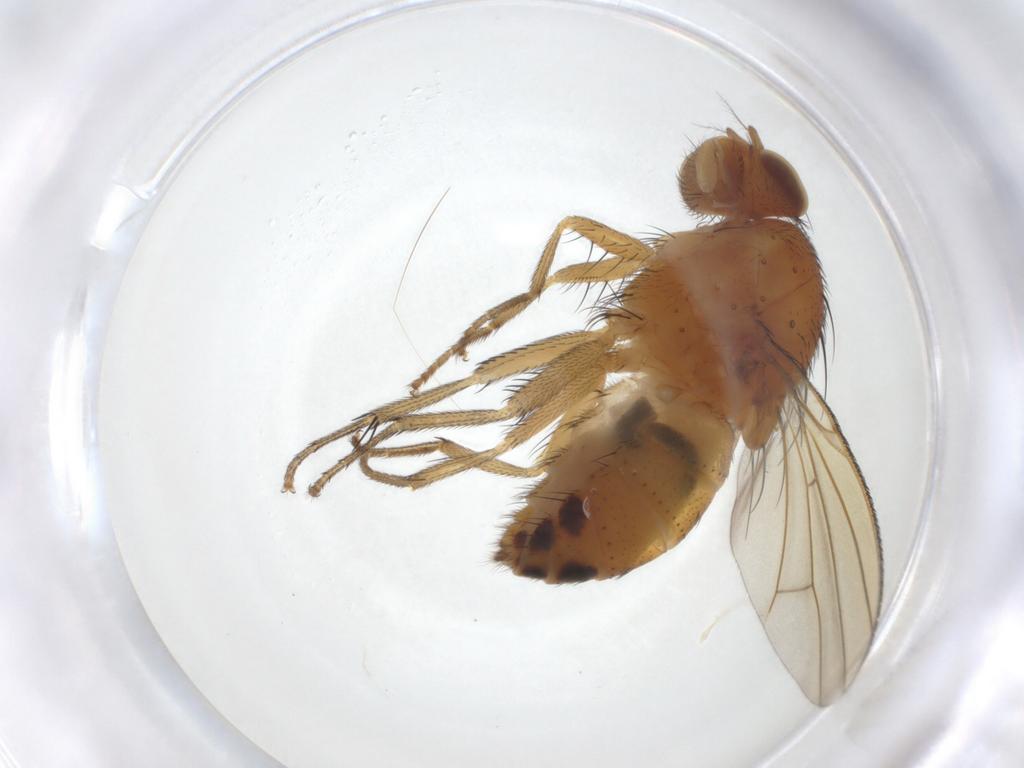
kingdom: Animalia
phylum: Arthropoda
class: Insecta
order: Diptera
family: Lauxaniidae
